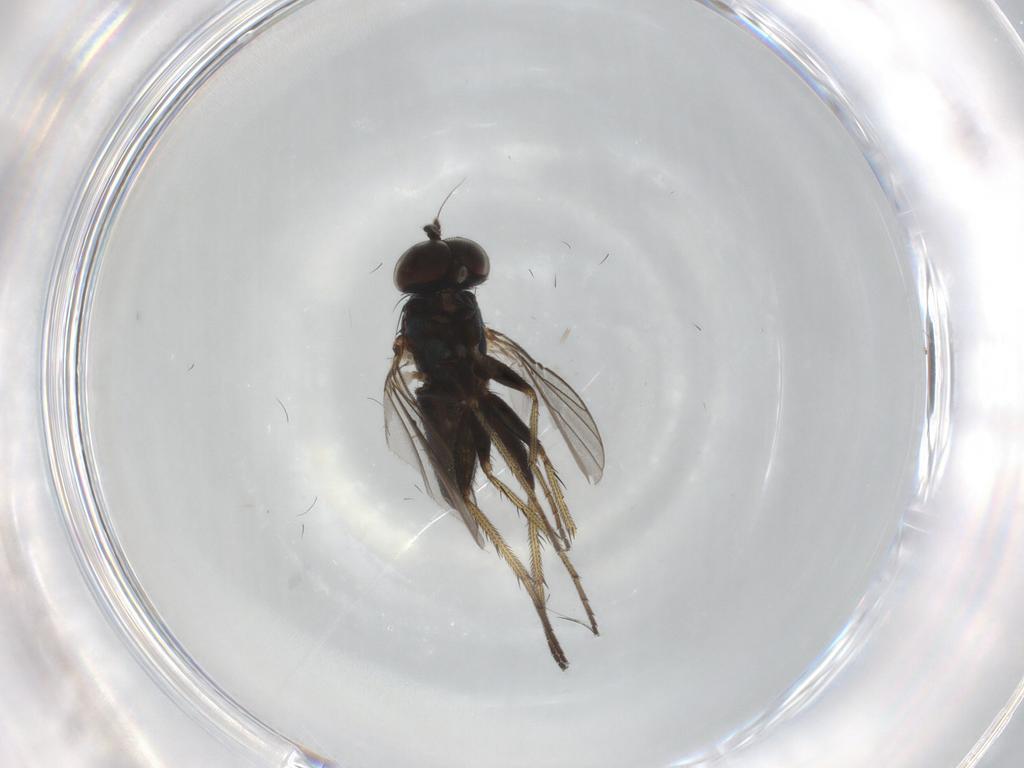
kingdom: Animalia
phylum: Arthropoda
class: Insecta
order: Diptera
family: Dolichopodidae
